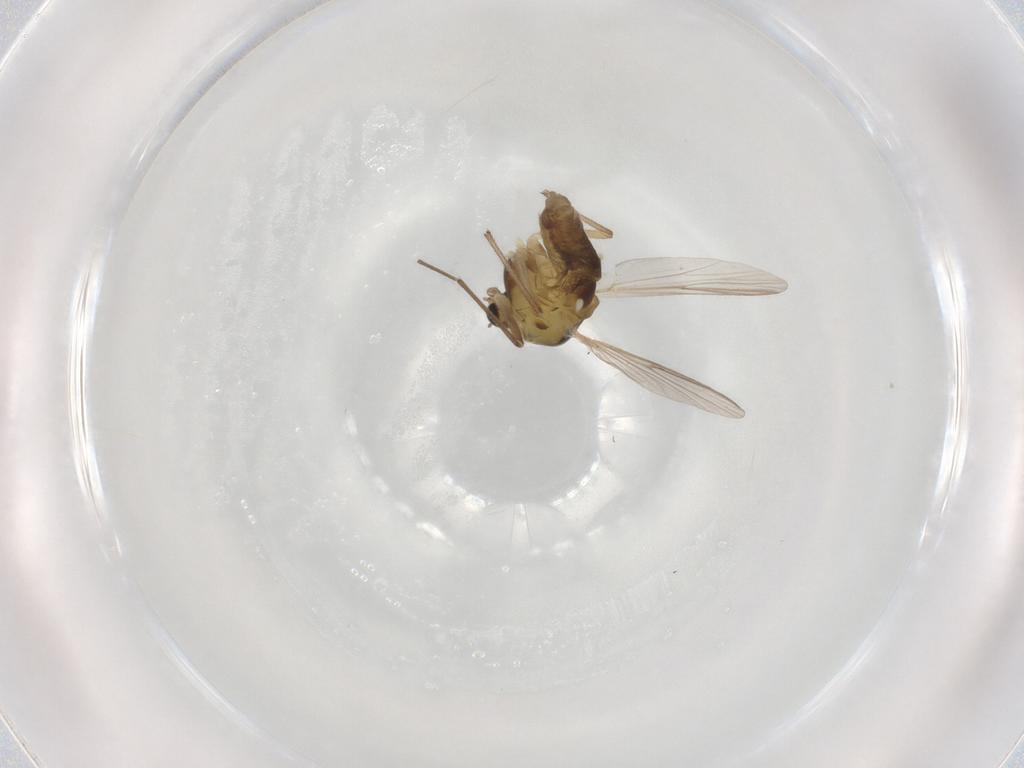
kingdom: Animalia
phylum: Arthropoda
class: Insecta
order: Diptera
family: Chironomidae
